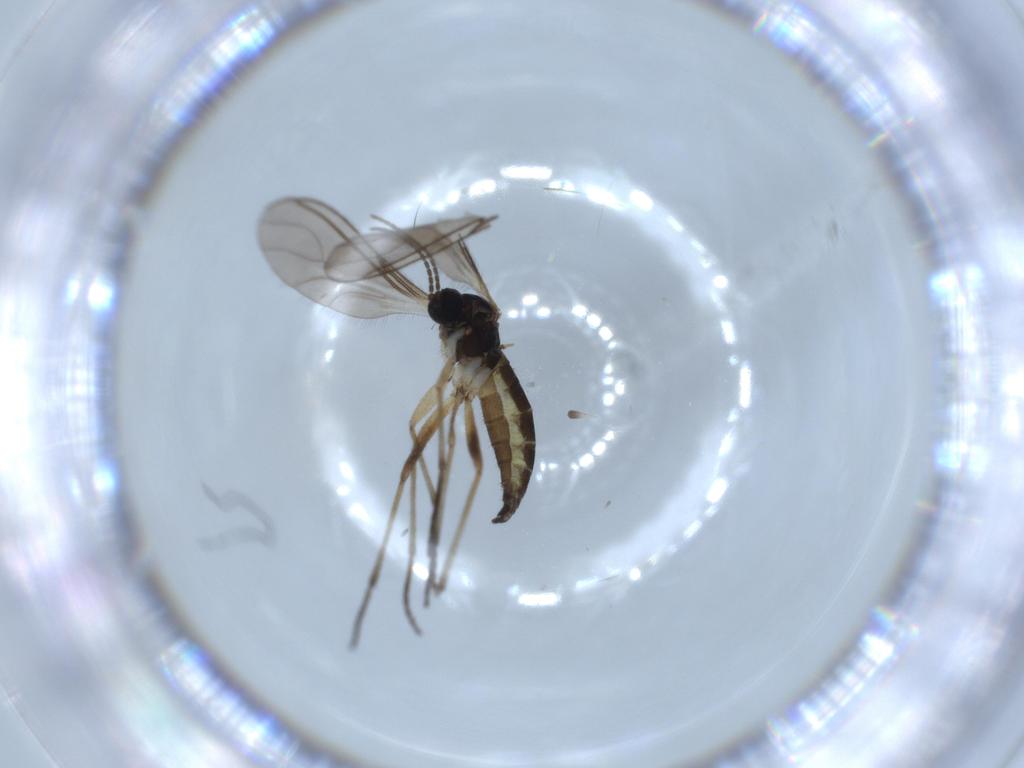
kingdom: Animalia
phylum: Arthropoda
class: Insecta
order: Diptera
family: Sciaridae
